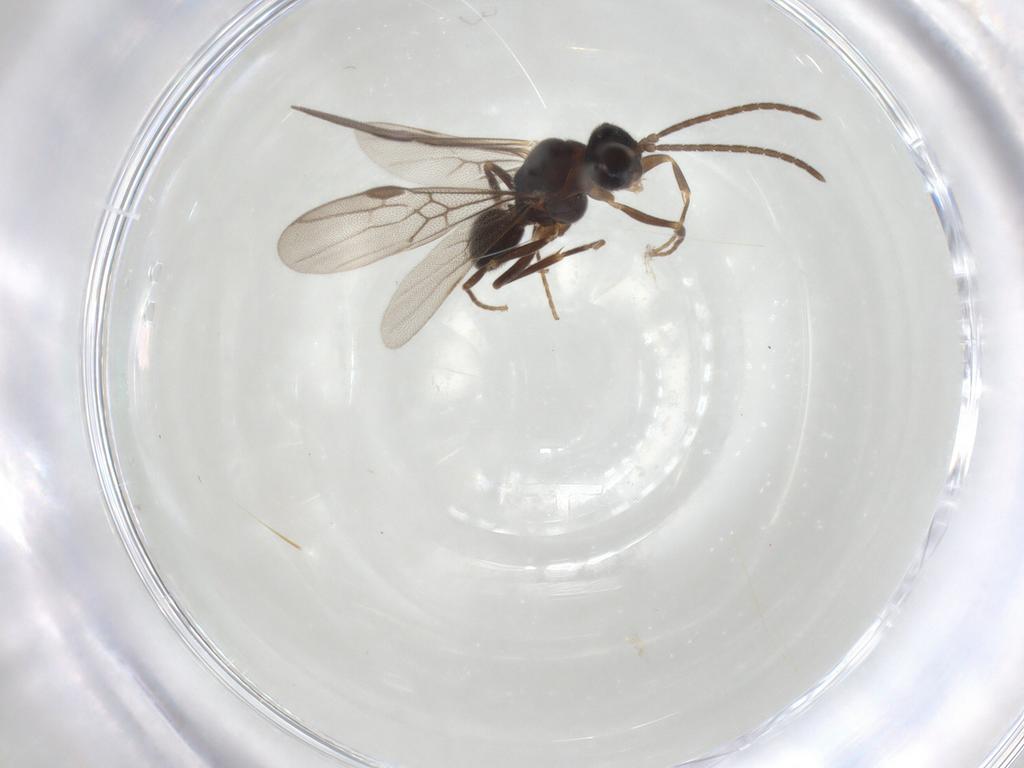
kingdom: Animalia
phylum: Arthropoda
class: Insecta
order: Hymenoptera
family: Formicidae
